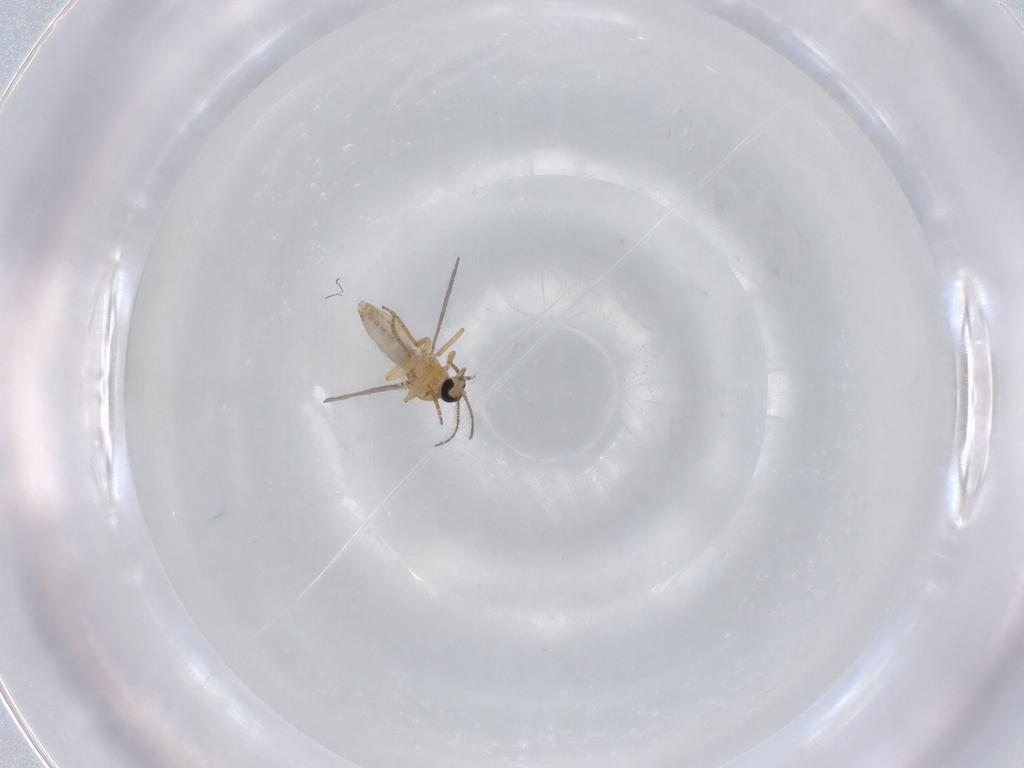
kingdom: Animalia
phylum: Arthropoda
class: Insecta
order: Diptera
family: Ceratopogonidae
